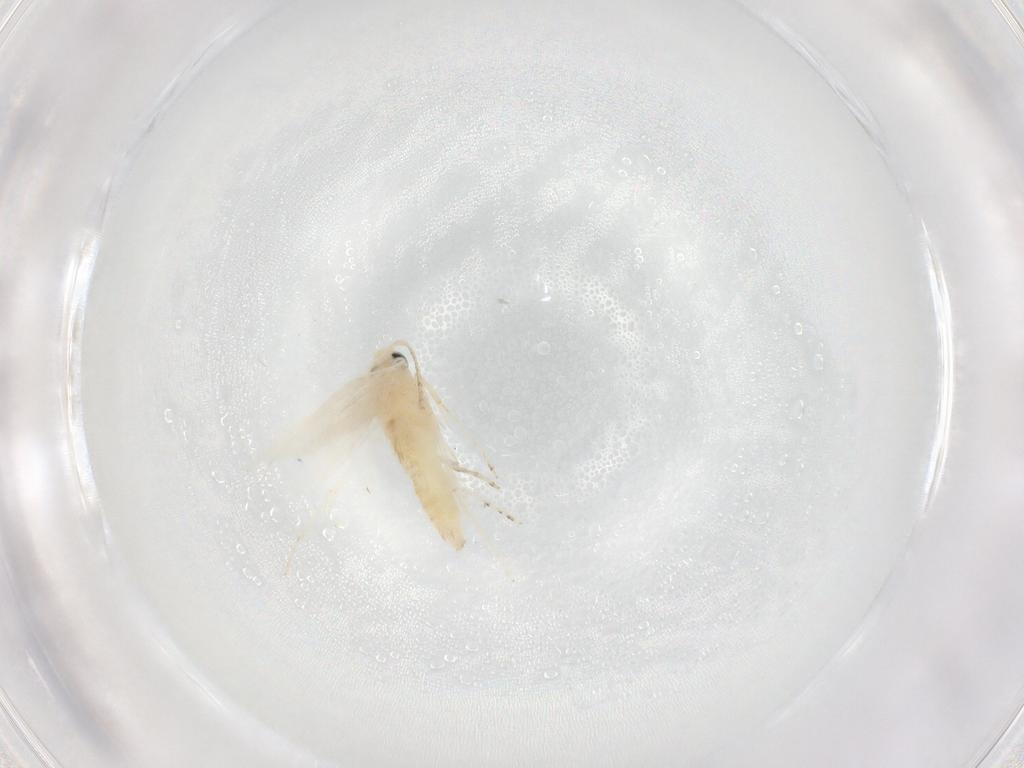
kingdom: Animalia
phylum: Arthropoda
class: Insecta
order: Lepidoptera
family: Lyonetiidae
